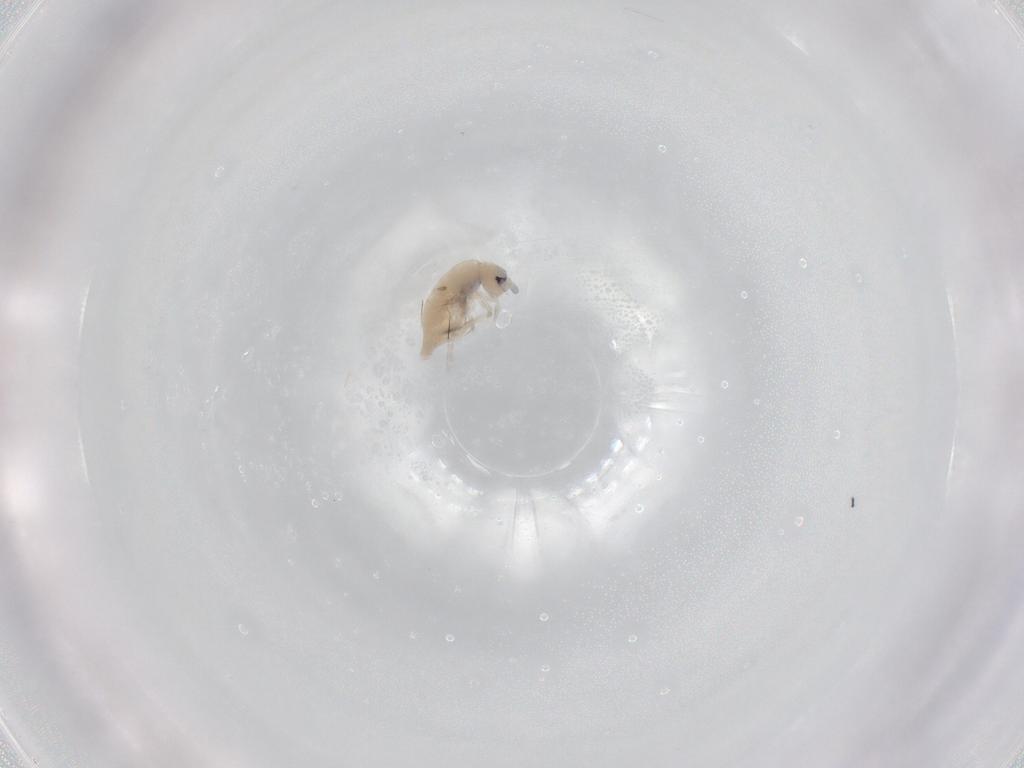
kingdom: Animalia
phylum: Arthropoda
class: Collembola
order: Entomobryomorpha
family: Tomoceridae
